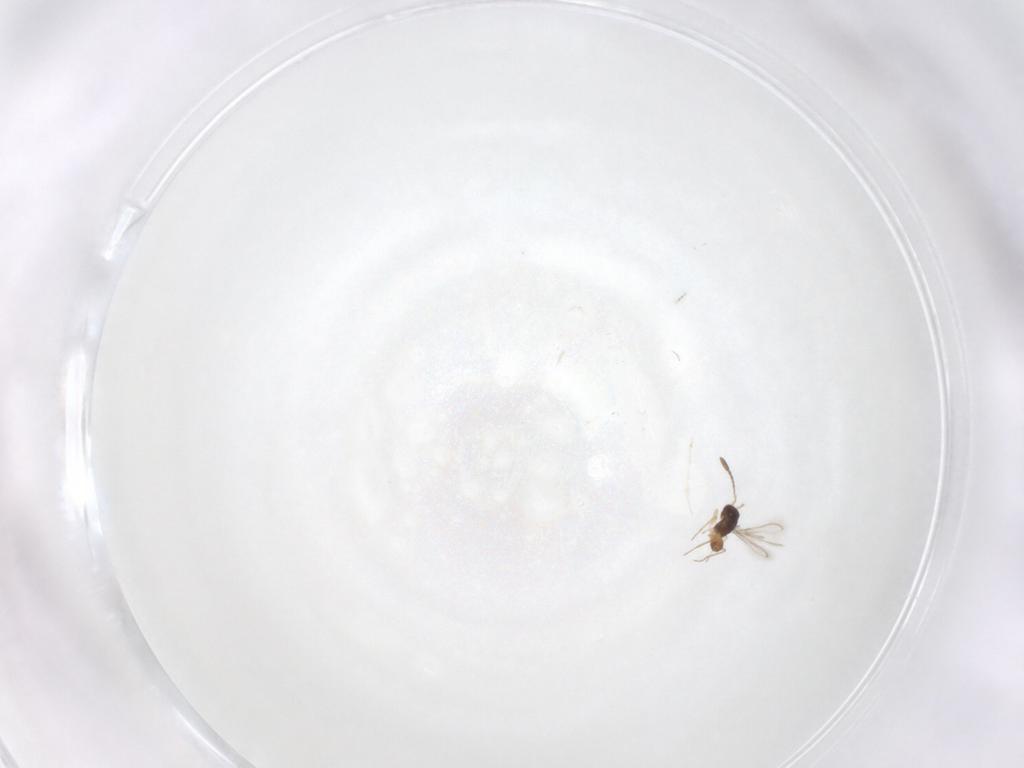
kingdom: Animalia
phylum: Arthropoda
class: Insecta
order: Hymenoptera
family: Mymaridae
